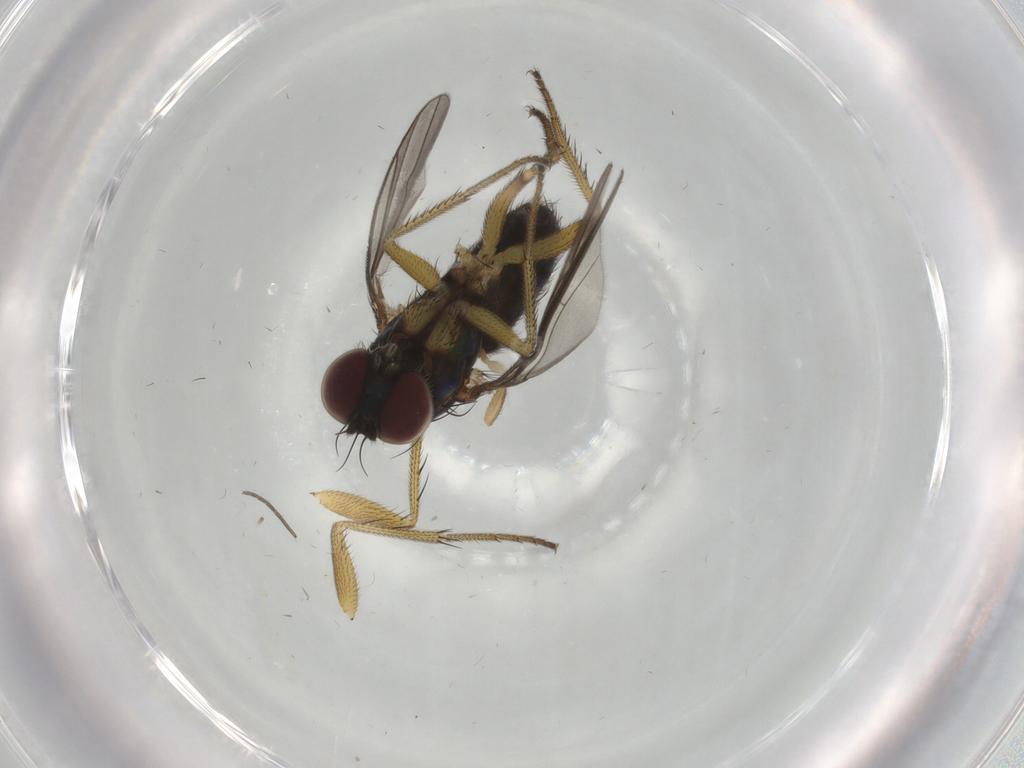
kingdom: Animalia
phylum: Arthropoda
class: Insecta
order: Diptera
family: Dolichopodidae
